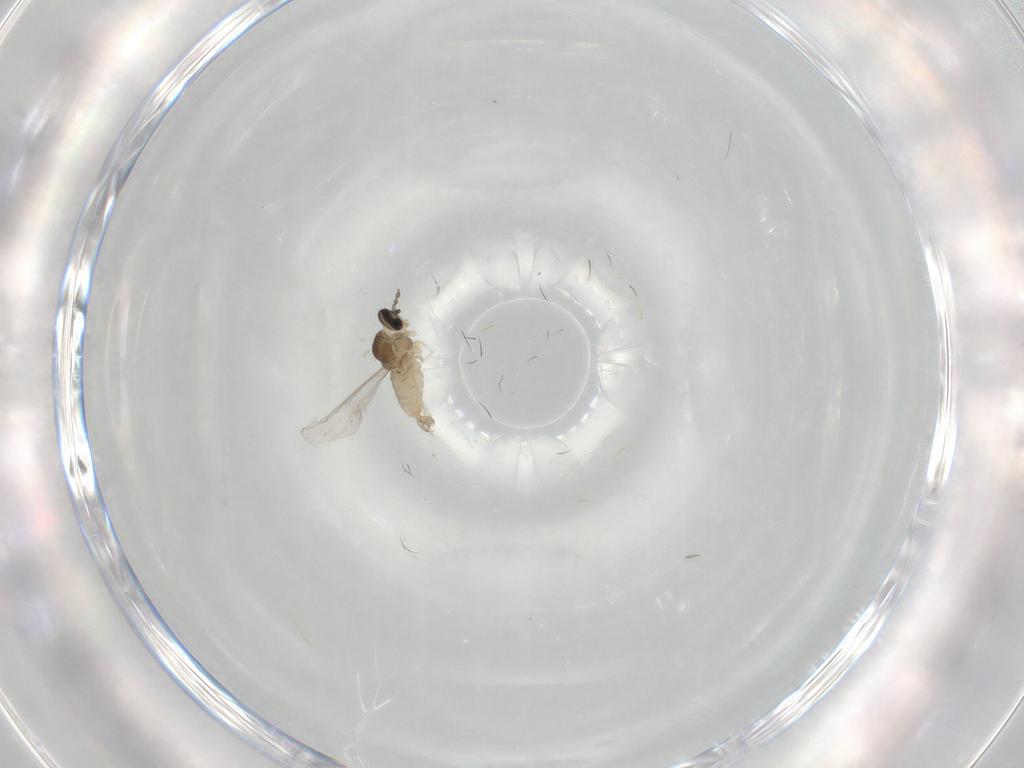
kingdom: Animalia
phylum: Arthropoda
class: Insecta
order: Diptera
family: Cecidomyiidae
